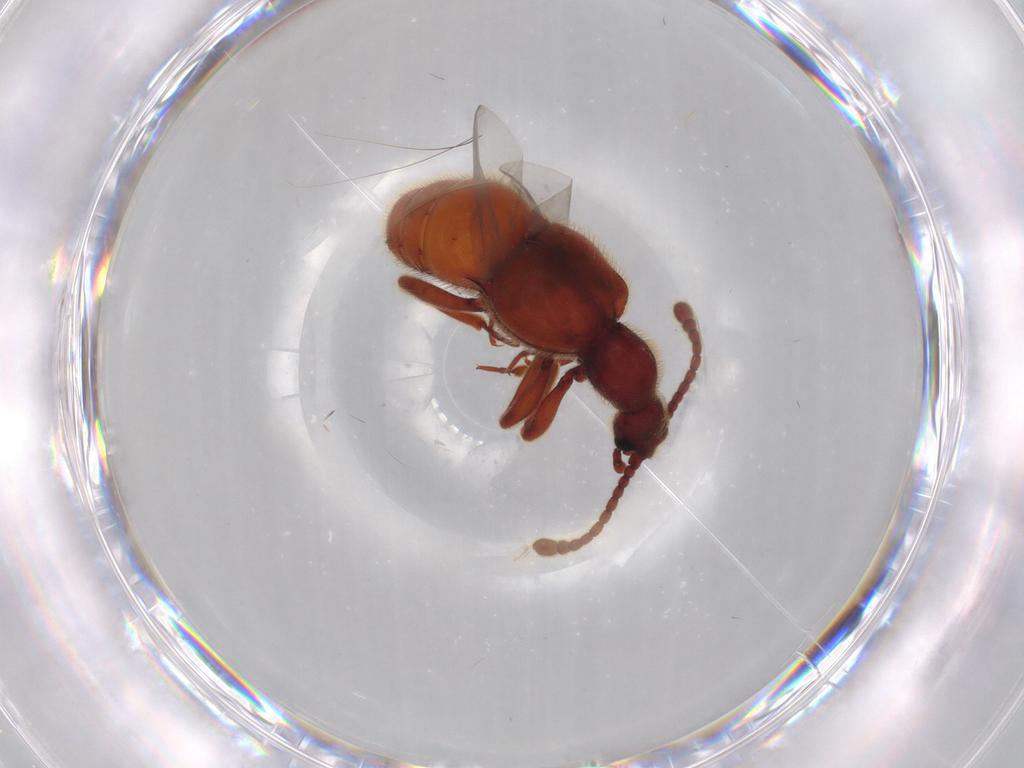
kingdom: Animalia
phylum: Arthropoda
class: Insecta
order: Coleoptera
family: Staphylinidae
